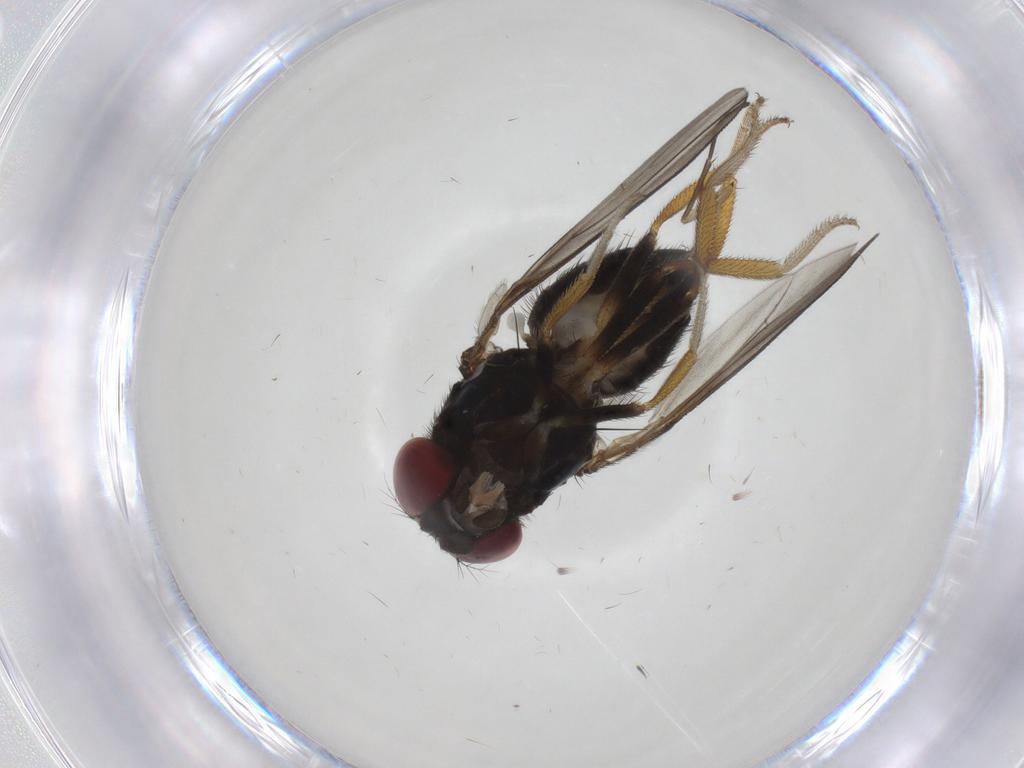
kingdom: Animalia
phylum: Arthropoda
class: Insecta
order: Diptera
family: Drosophilidae
